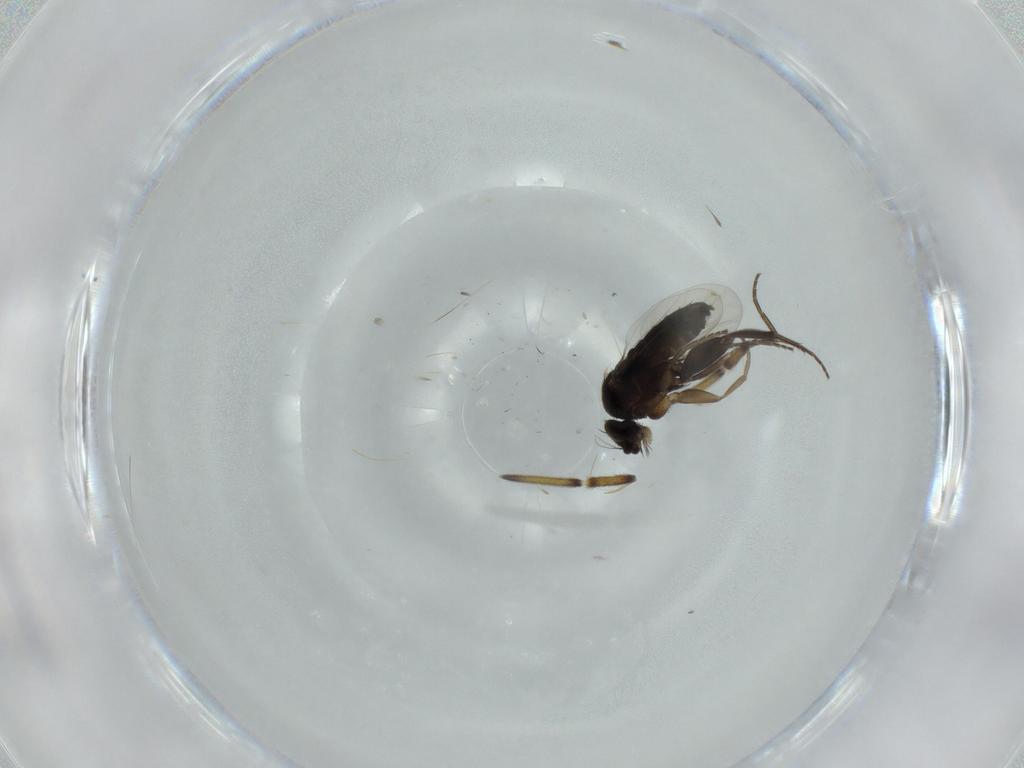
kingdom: Animalia
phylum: Arthropoda
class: Insecta
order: Diptera
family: Phoridae
